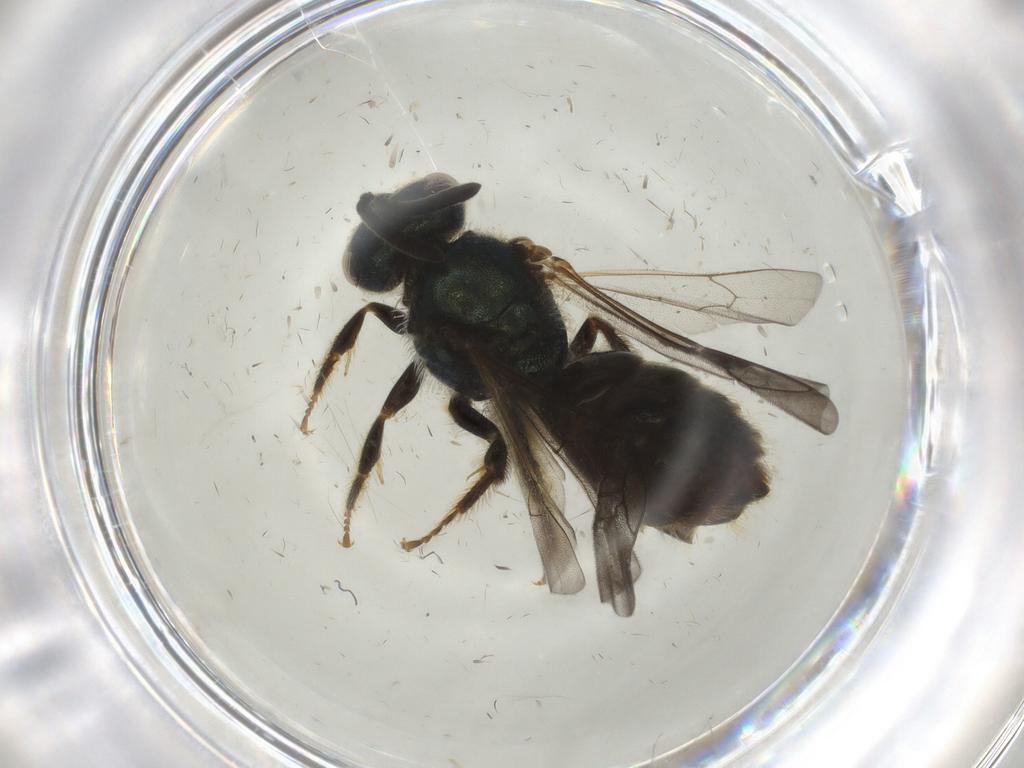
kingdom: Animalia
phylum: Arthropoda
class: Insecta
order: Hymenoptera
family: Halictidae
